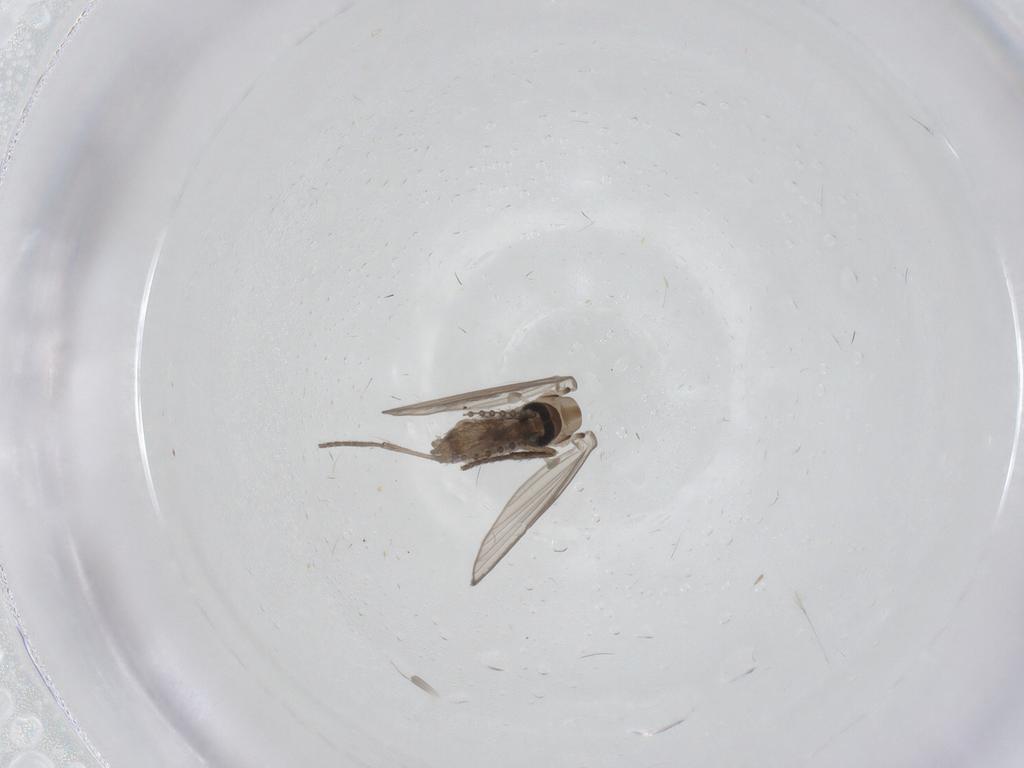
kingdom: Animalia
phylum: Arthropoda
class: Insecta
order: Diptera
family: Psychodidae
